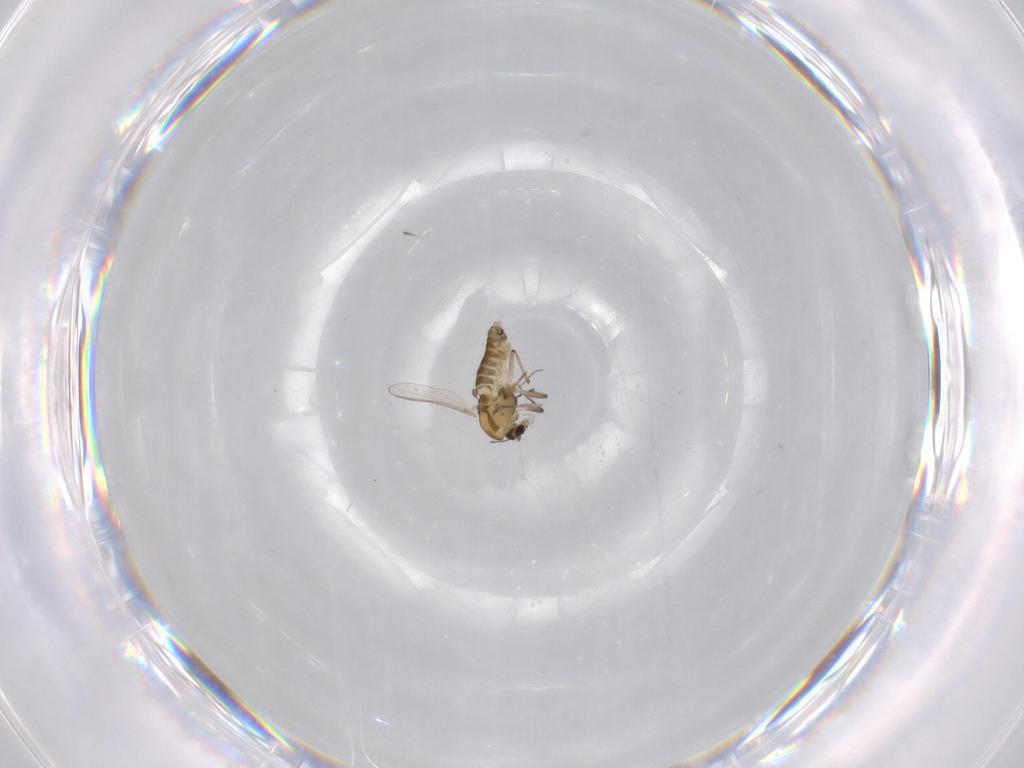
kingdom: Animalia
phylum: Arthropoda
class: Insecta
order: Diptera
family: Chironomidae
